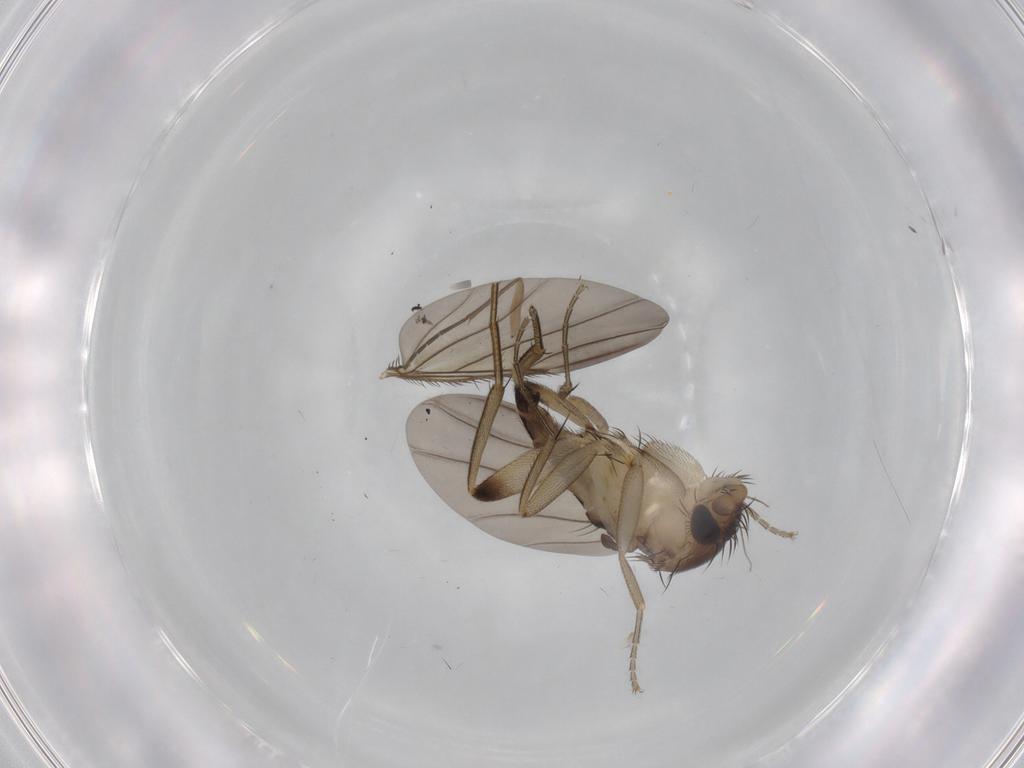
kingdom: Animalia
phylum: Arthropoda
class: Insecta
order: Diptera
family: Phoridae
